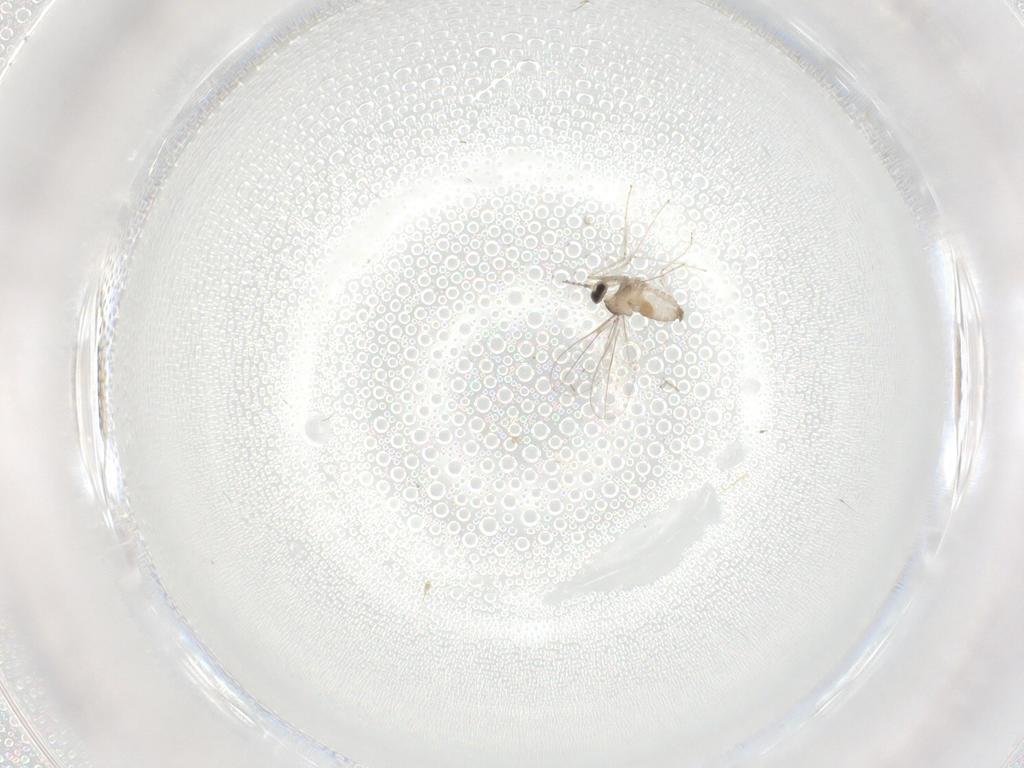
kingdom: Animalia
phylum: Arthropoda
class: Insecta
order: Diptera
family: Cecidomyiidae
